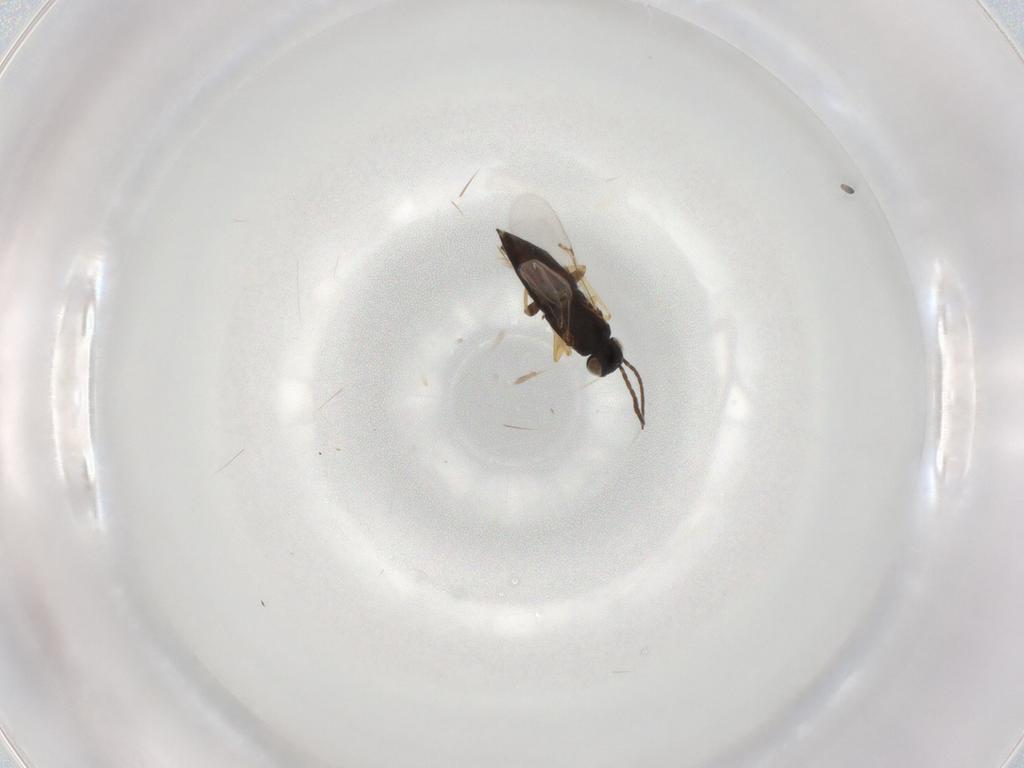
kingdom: Animalia
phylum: Arthropoda
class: Insecta
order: Hymenoptera
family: Encyrtidae
